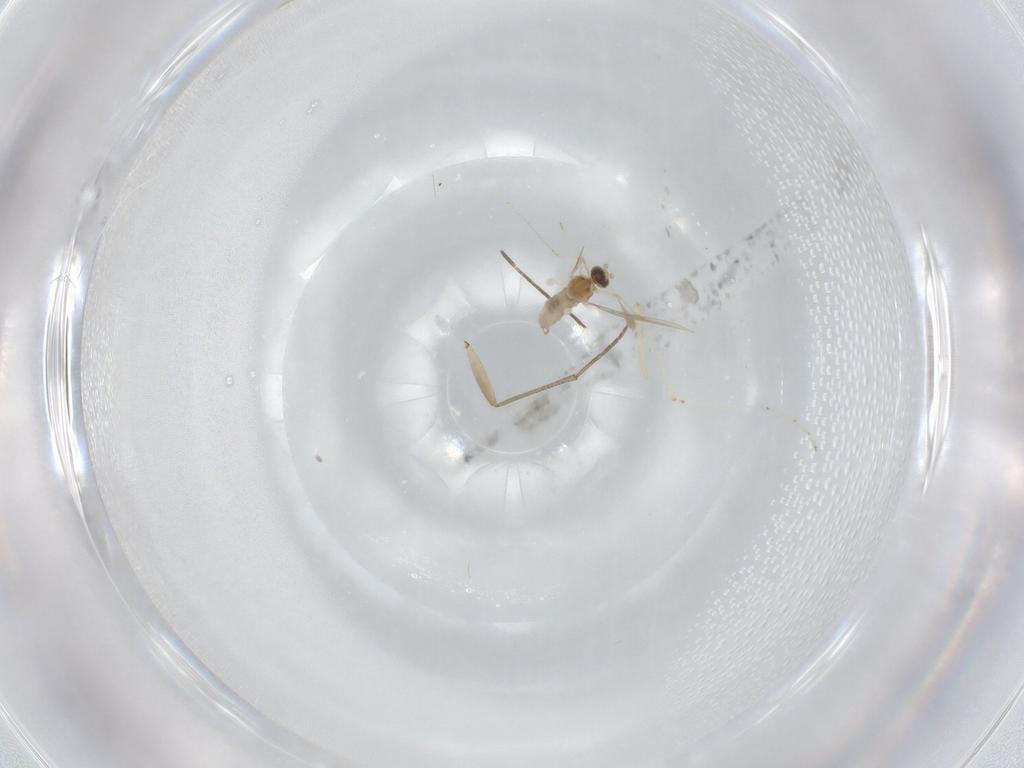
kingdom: Animalia
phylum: Arthropoda
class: Insecta
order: Diptera
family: Cecidomyiidae
